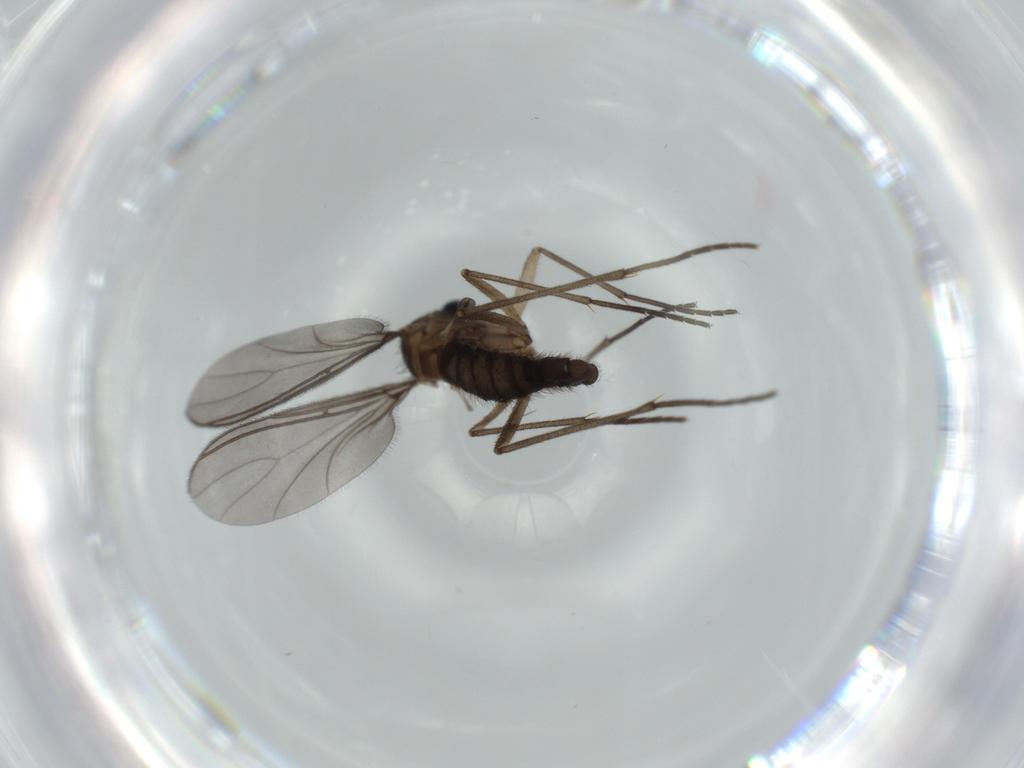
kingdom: Animalia
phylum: Arthropoda
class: Insecta
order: Diptera
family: Sciaridae
